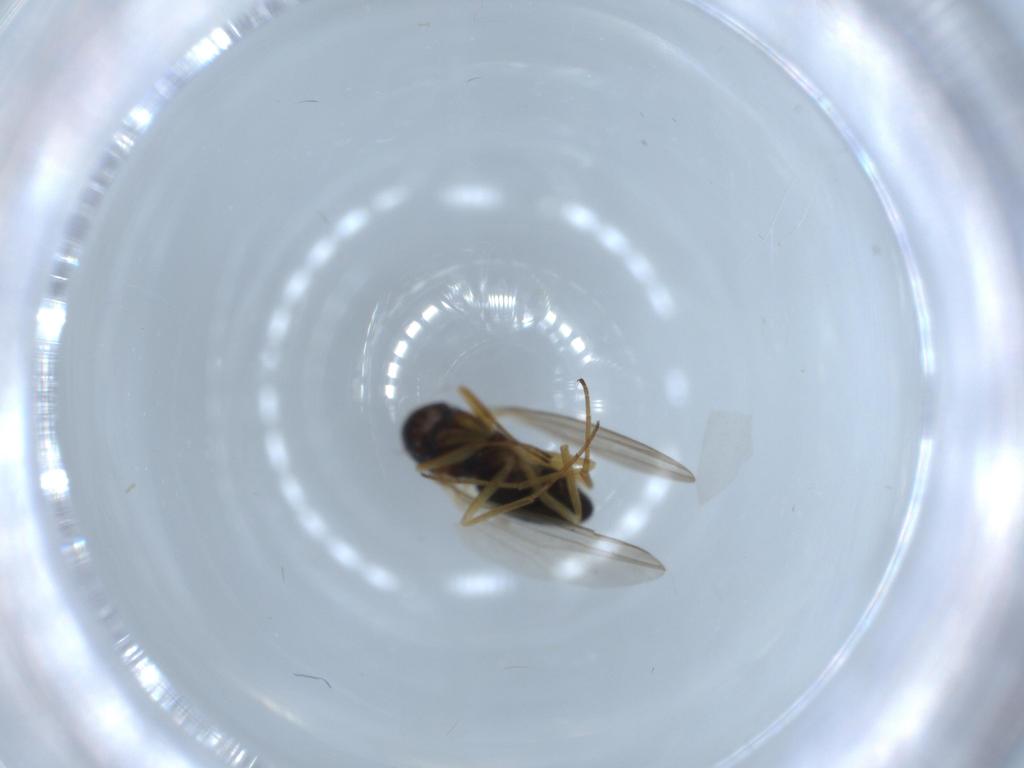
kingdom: Animalia
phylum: Arthropoda
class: Insecta
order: Diptera
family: Dolichopodidae
